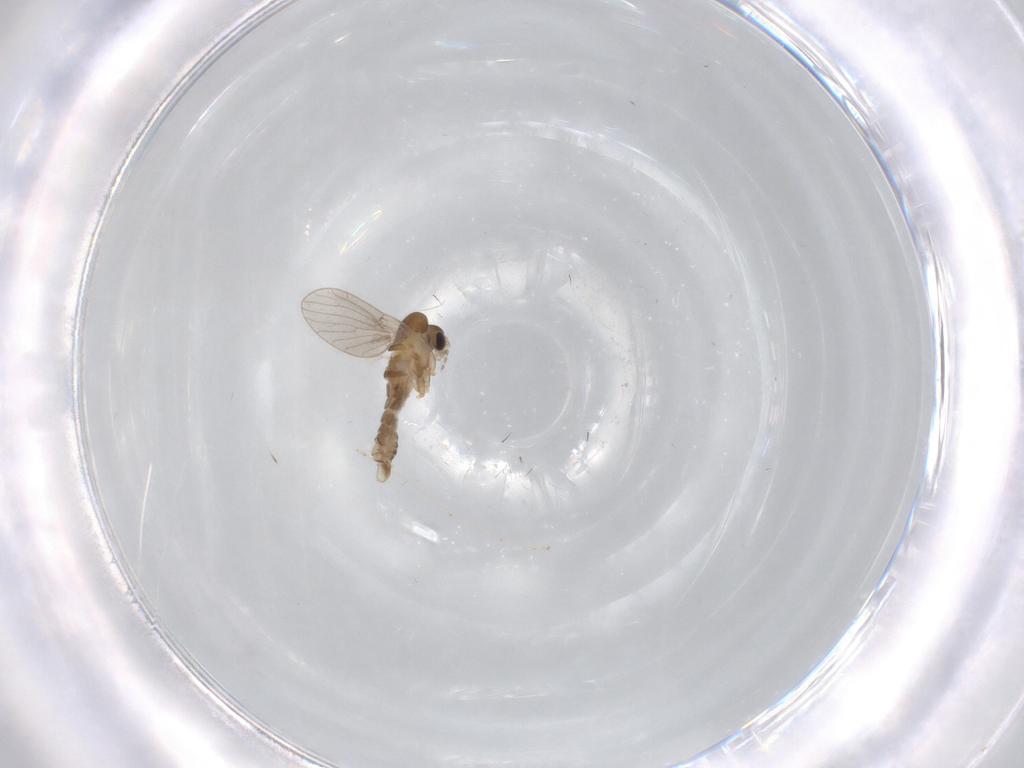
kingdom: Animalia
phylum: Arthropoda
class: Insecta
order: Diptera
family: Cecidomyiidae
